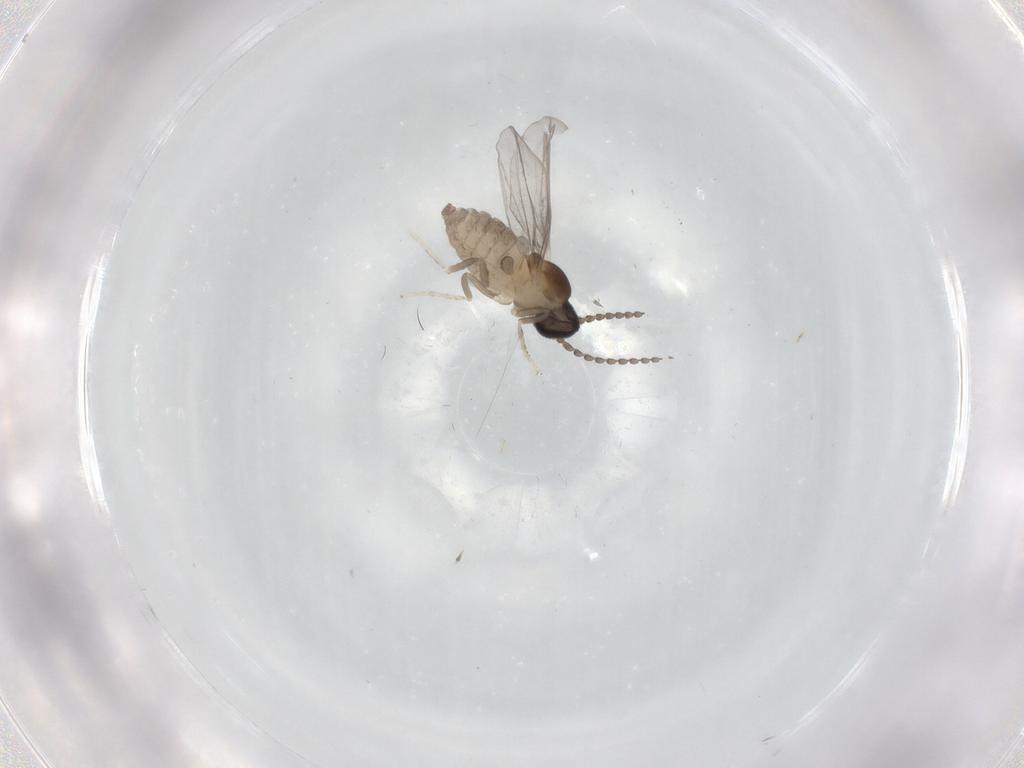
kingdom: Animalia
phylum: Arthropoda
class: Insecta
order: Diptera
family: Cecidomyiidae
